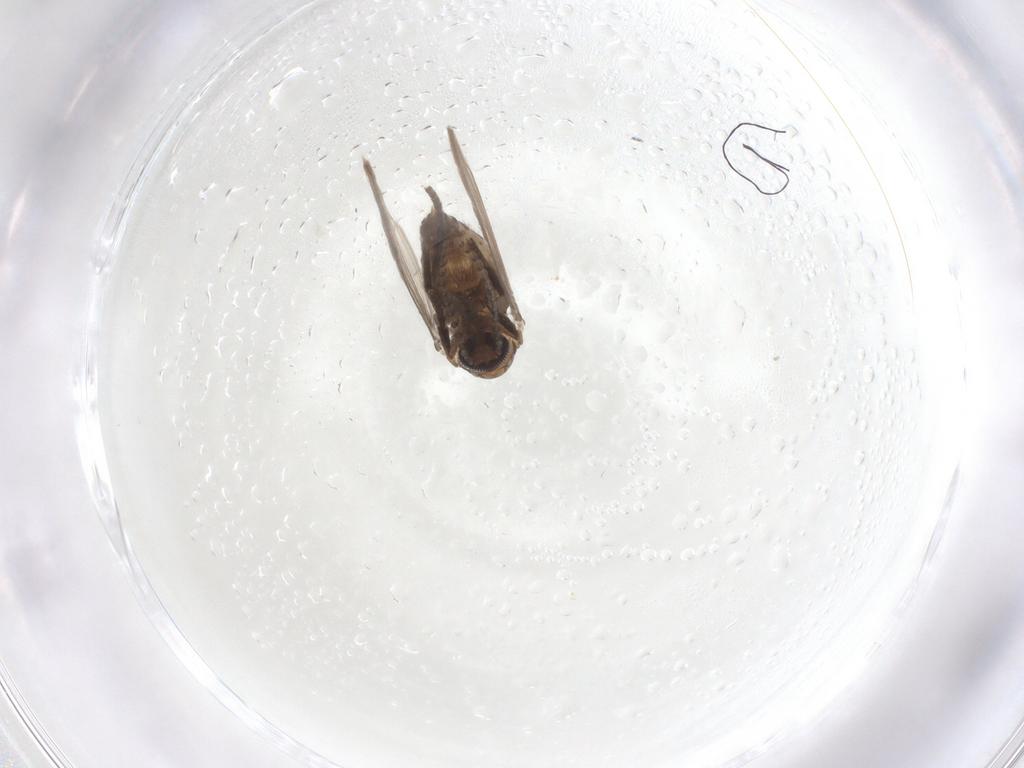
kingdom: Animalia
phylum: Arthropoda
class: Insecta
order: Diptera
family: Psychodidae
